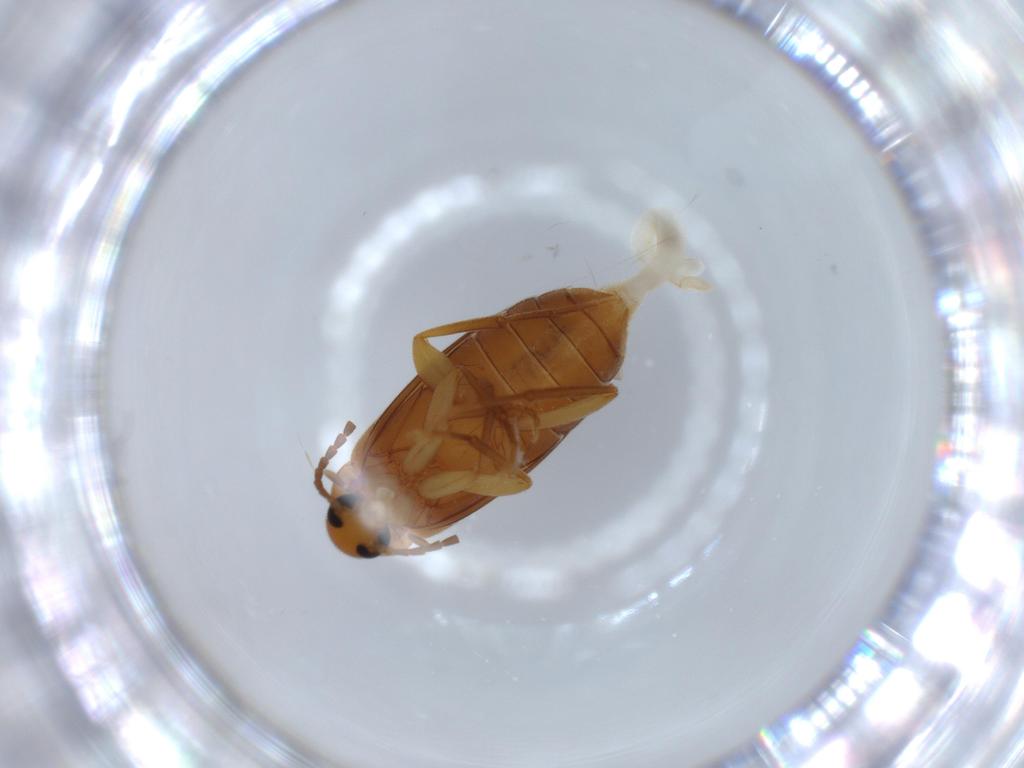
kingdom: Animalia
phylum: Arthropoda
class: Insecta
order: Coleoptera
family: Scraptiidae
